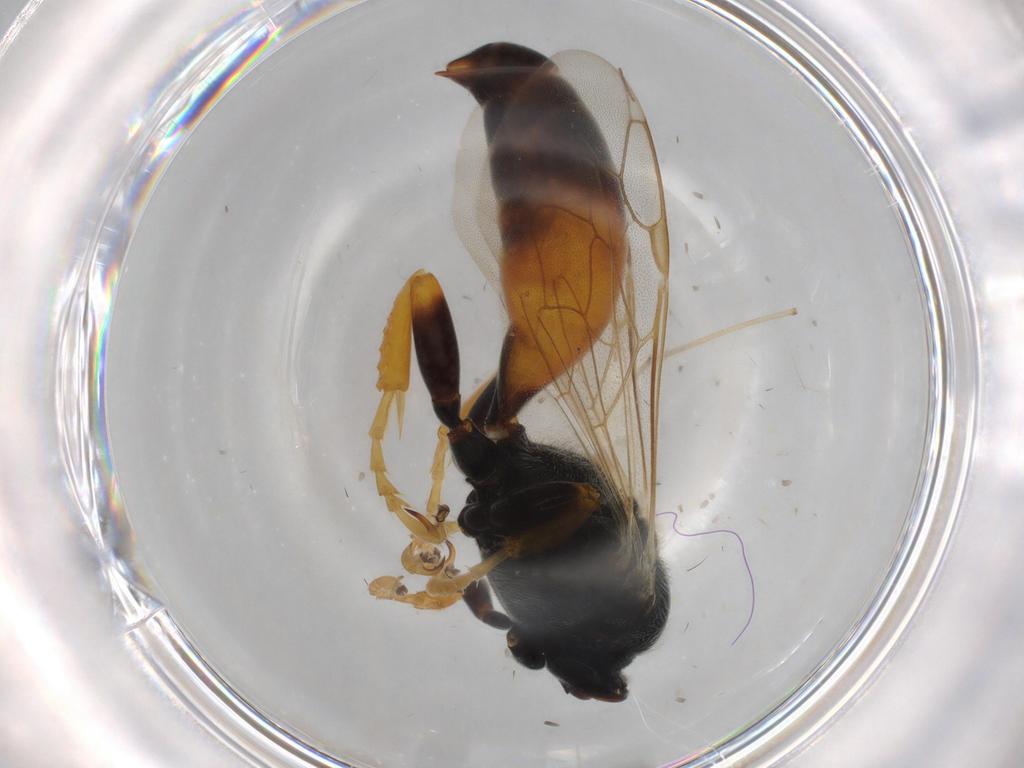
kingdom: Animalia
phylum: Arthropoda
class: Insecta
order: Hymenoptera
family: Crabronidae
